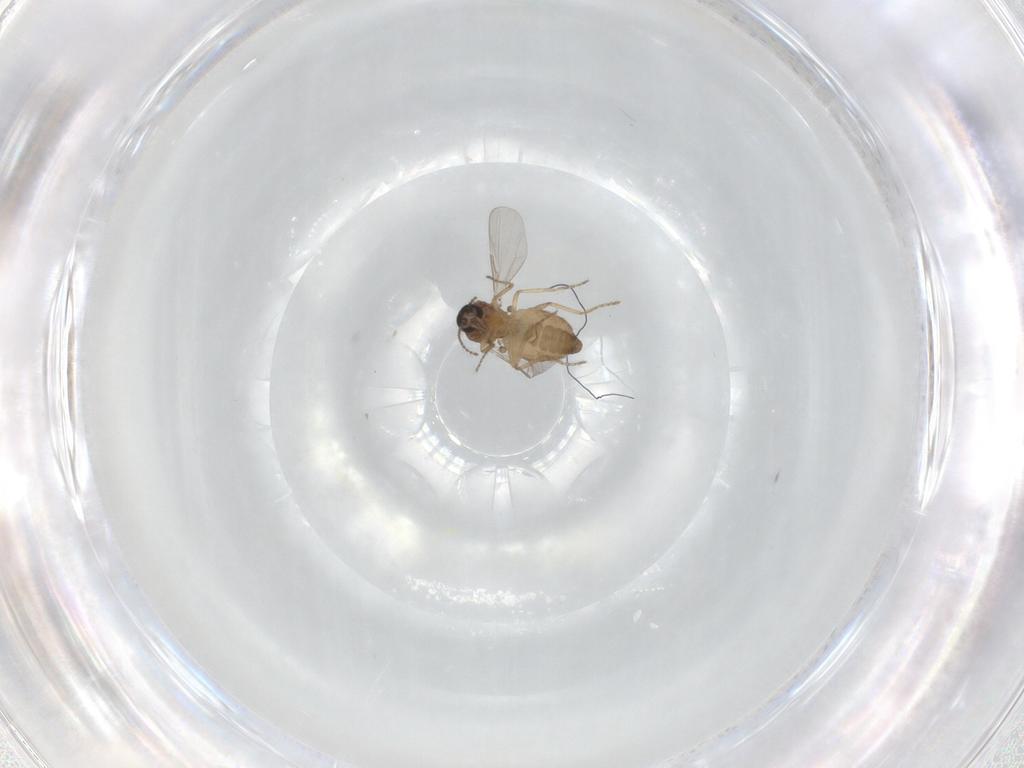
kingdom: Animalia
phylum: Arthropoda
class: Insecta
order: Diptera
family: Ceratopogonidae
